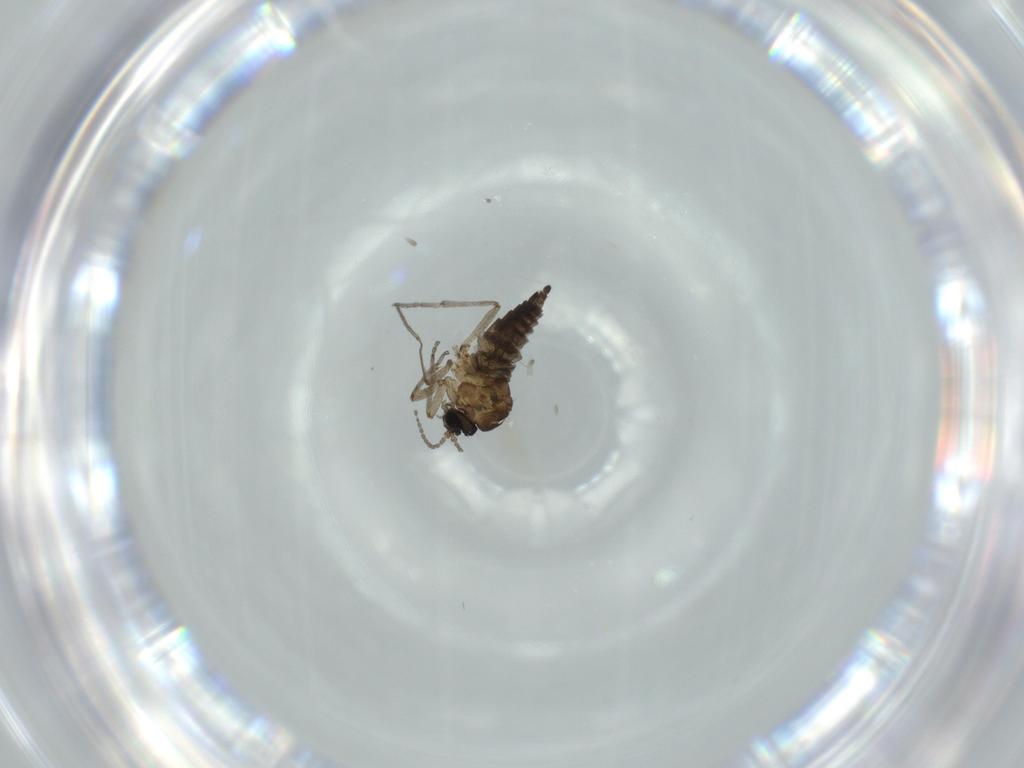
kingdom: Animalia
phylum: Arthropoda
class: Insecta
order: Diptera
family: Sciaridae
